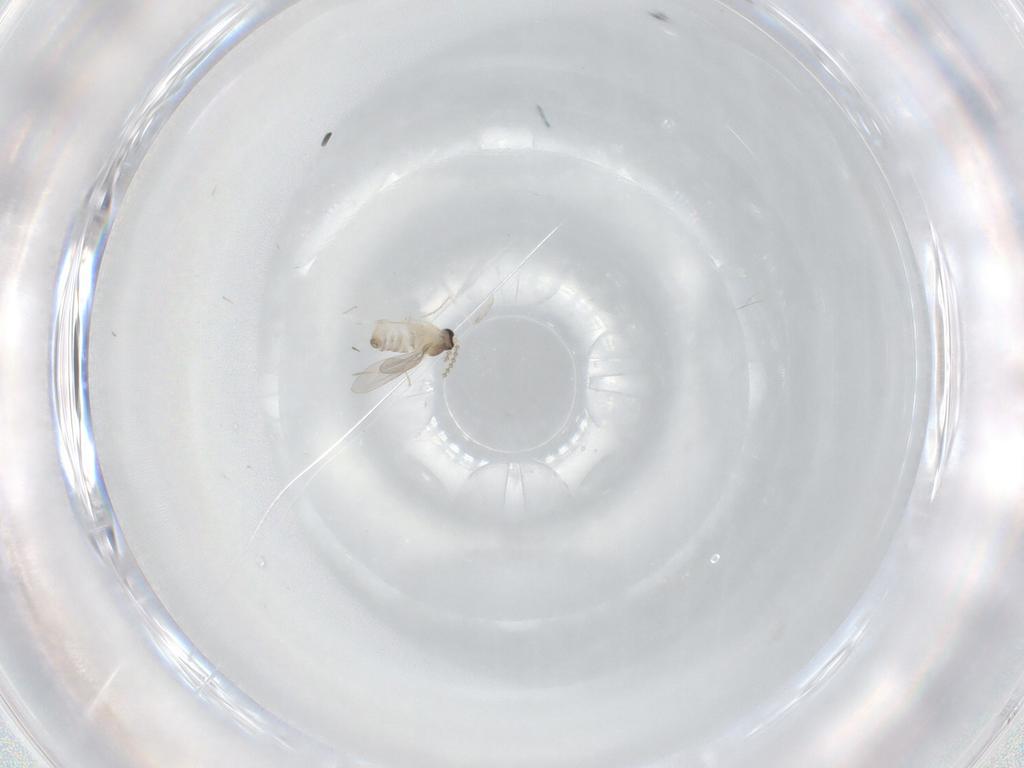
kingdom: Animalia
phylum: Arthropoda
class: Insecta
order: Diptera
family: Cecidomyiidae
